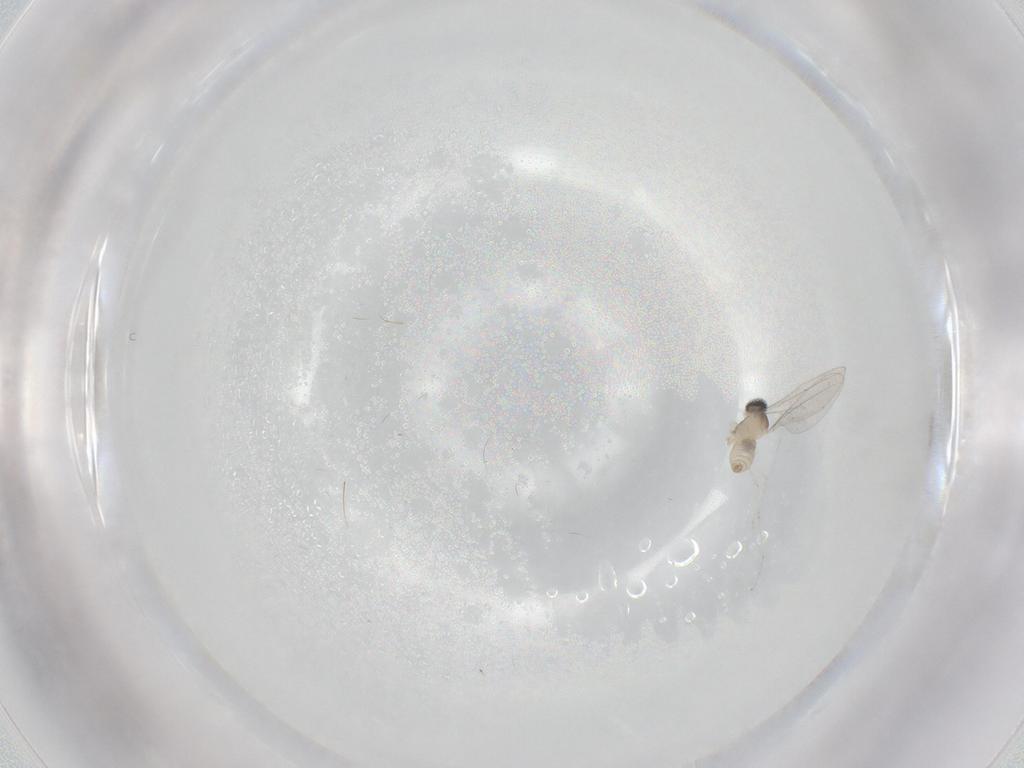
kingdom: Animalia
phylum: Arthropoda
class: Insecta
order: Diptera
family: Cecidomyiidae
